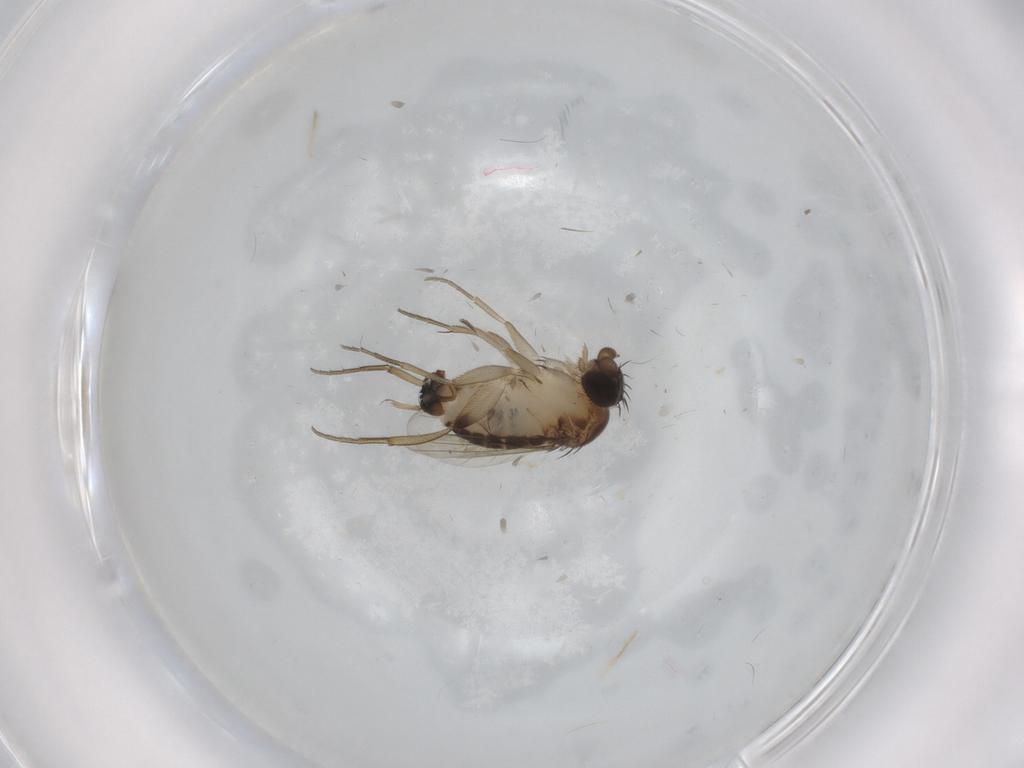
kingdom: Animalia
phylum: Arthropoda
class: Insecta
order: Diptera
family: Phoridae
